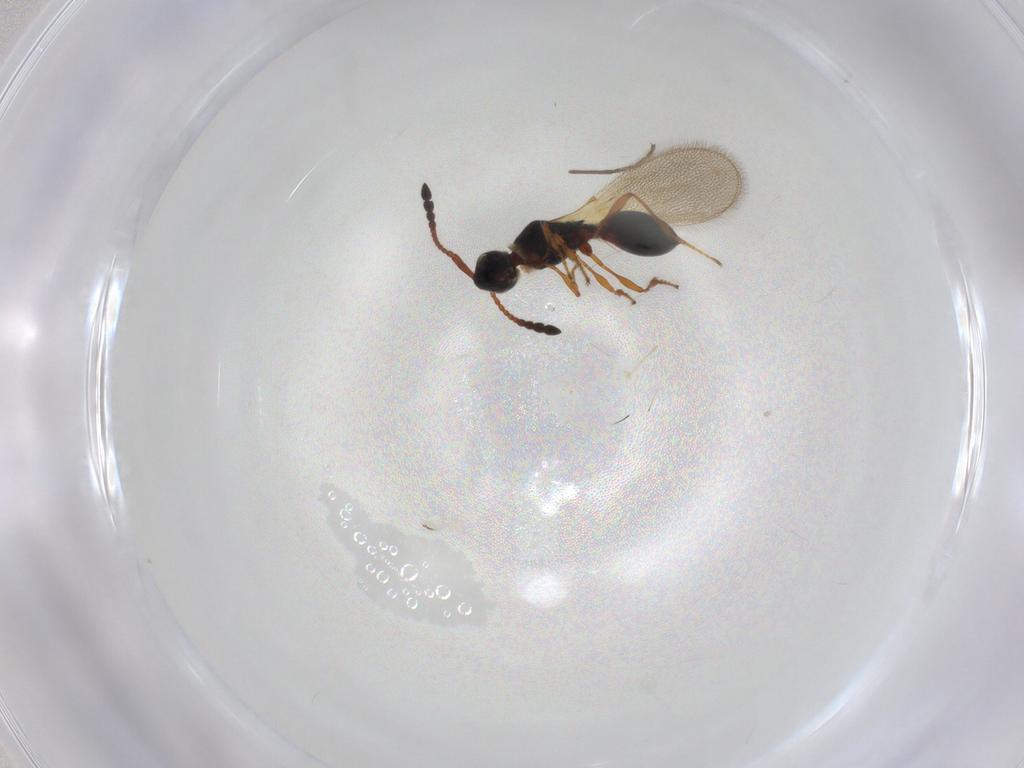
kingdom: Animalia
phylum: Arthropoda
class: Insecta
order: Hymenoptera
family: Diapriidae
